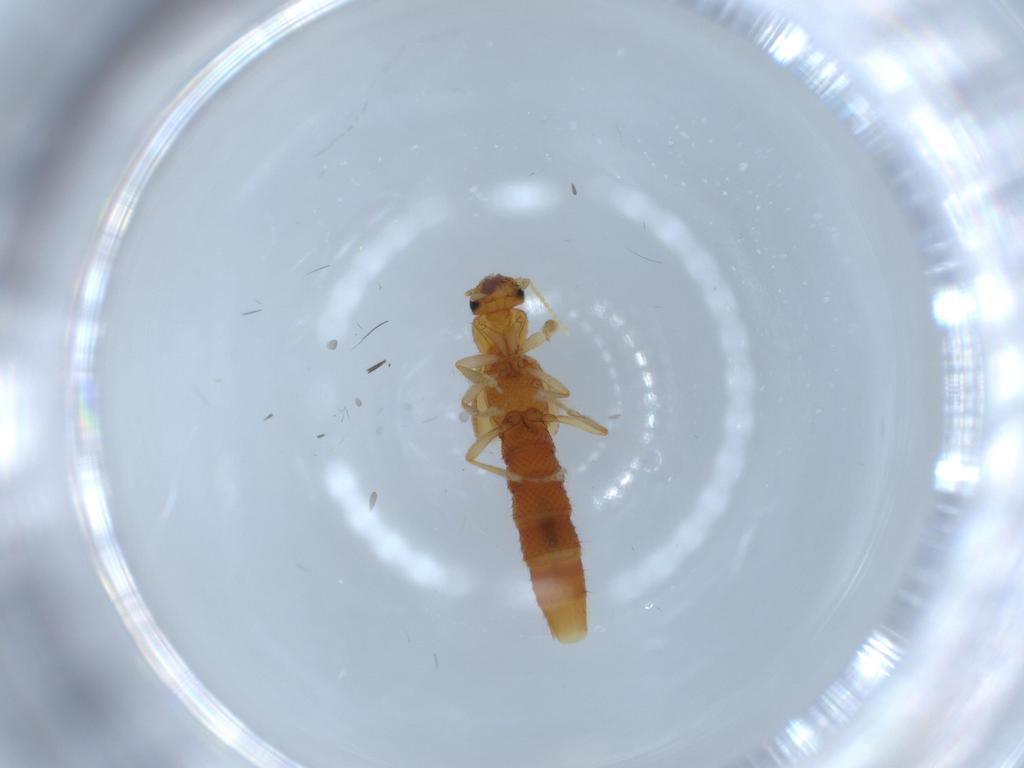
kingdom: Animalia
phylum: Arthropoda
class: Insecta
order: Coleoptera
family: Staphylinidae
